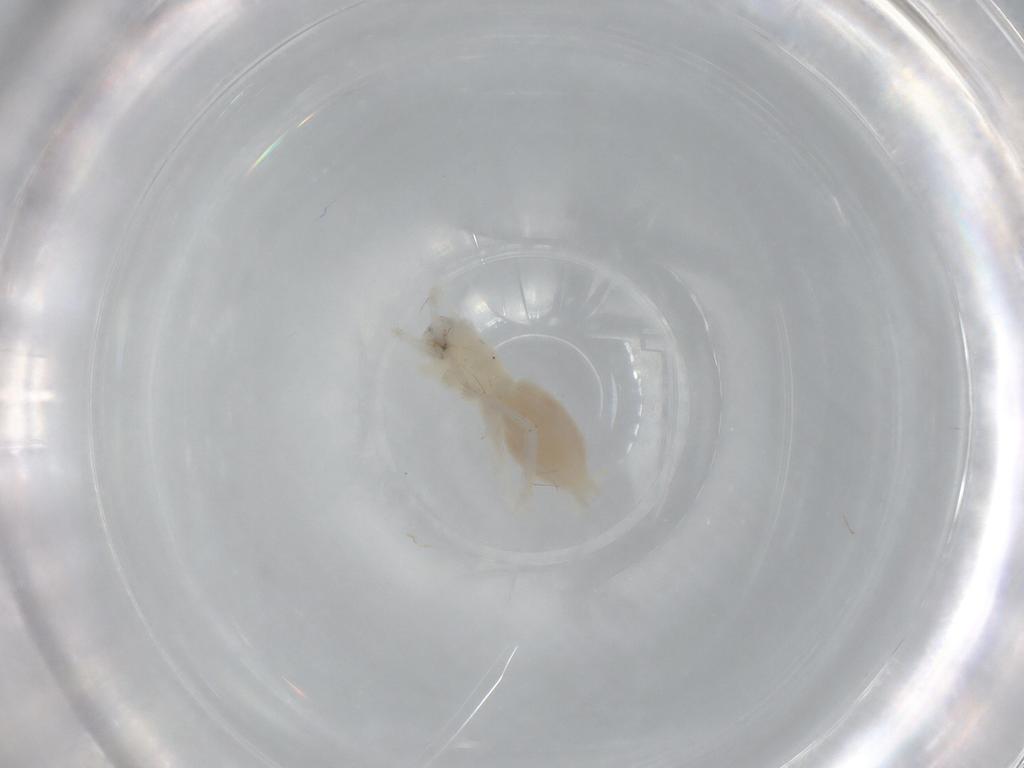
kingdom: Animalia
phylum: Arthropoda
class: Arachnida
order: Araneae
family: Anyphaenidae
